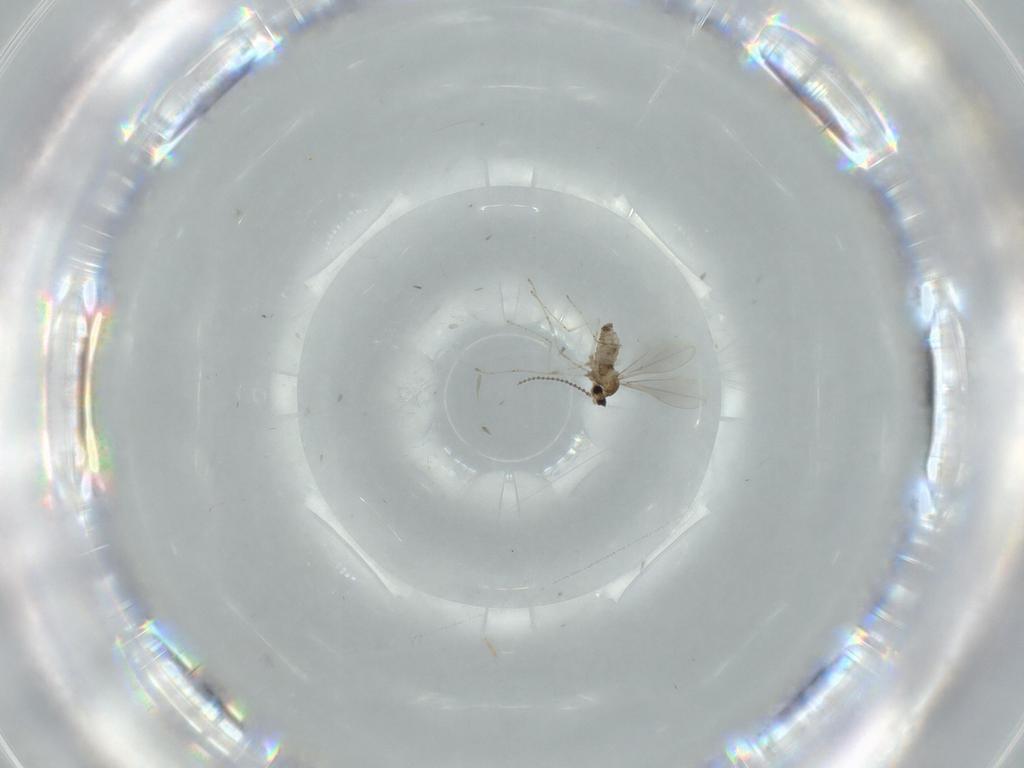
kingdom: Animalia
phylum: Arthropoda
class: Insecta
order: Diptera
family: Cecidomyiidae
